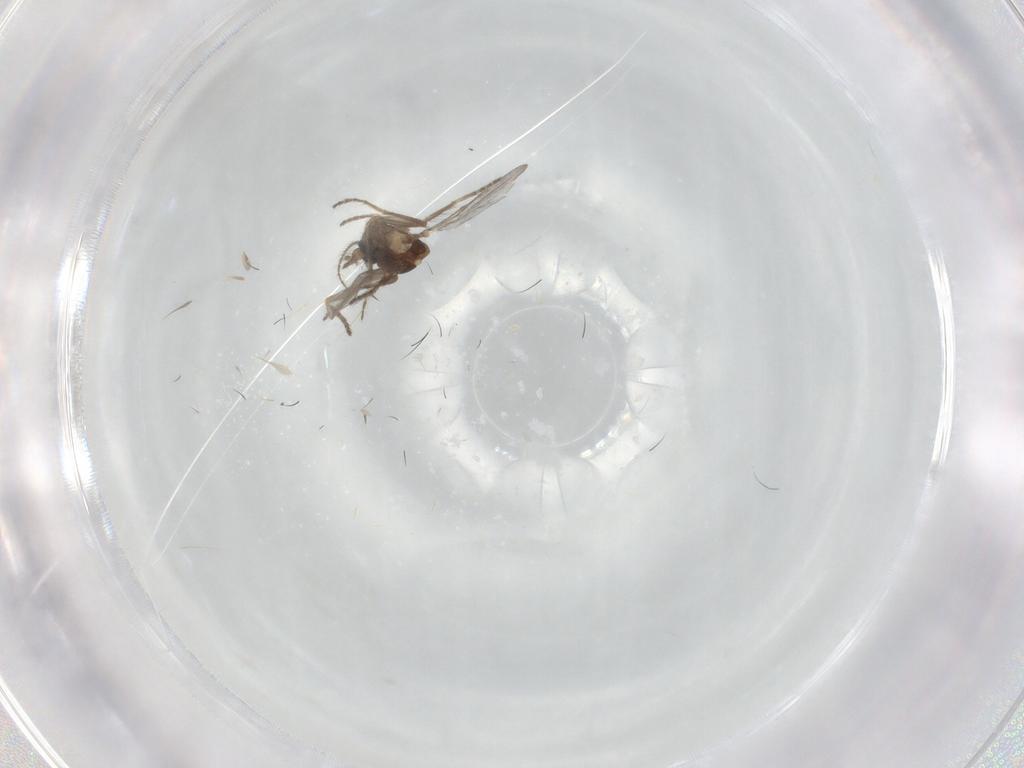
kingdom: Animalia
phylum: Arthropoda
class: Insecta
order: Diptera
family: Ceratopogonidae
